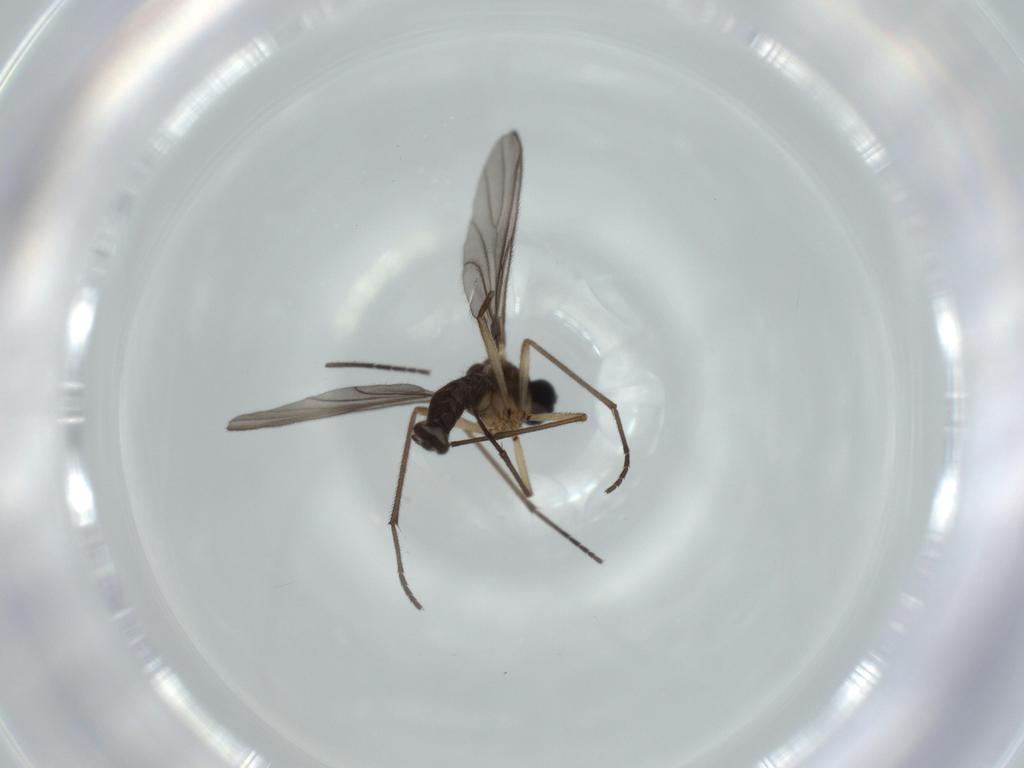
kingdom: Animalia
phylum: Arthropoda
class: Insecta
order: Diptera
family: Sciaridae
